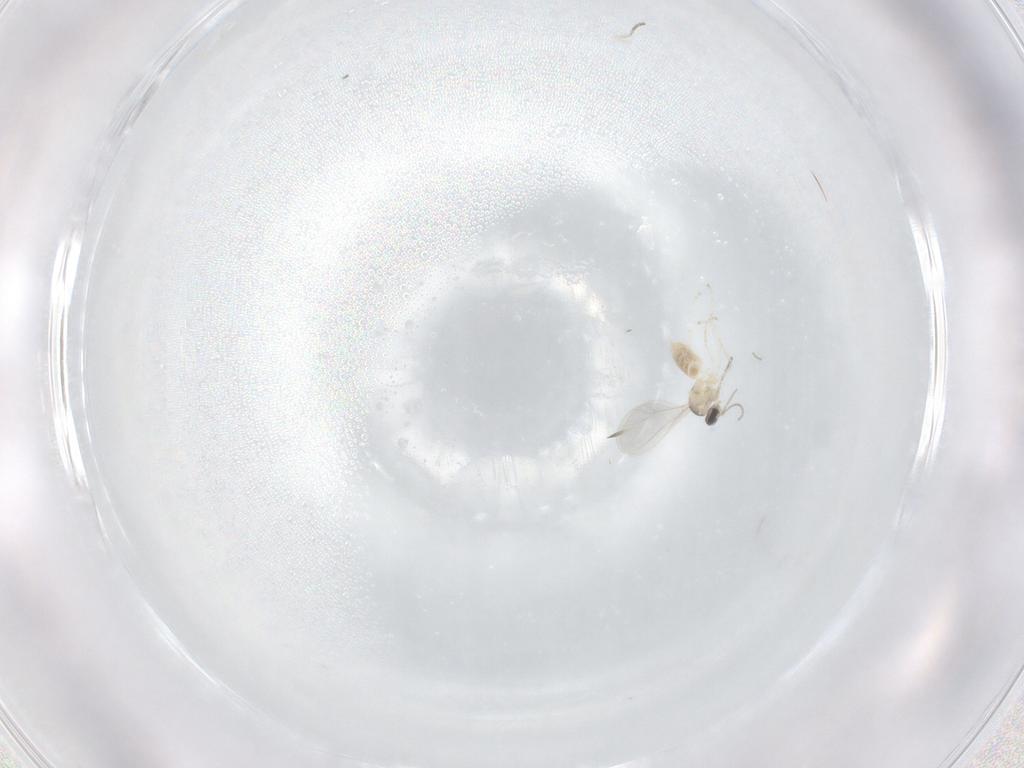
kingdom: Animalia
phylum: Arthropoda
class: Insecta
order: Diptera
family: Cecidomyiidae
